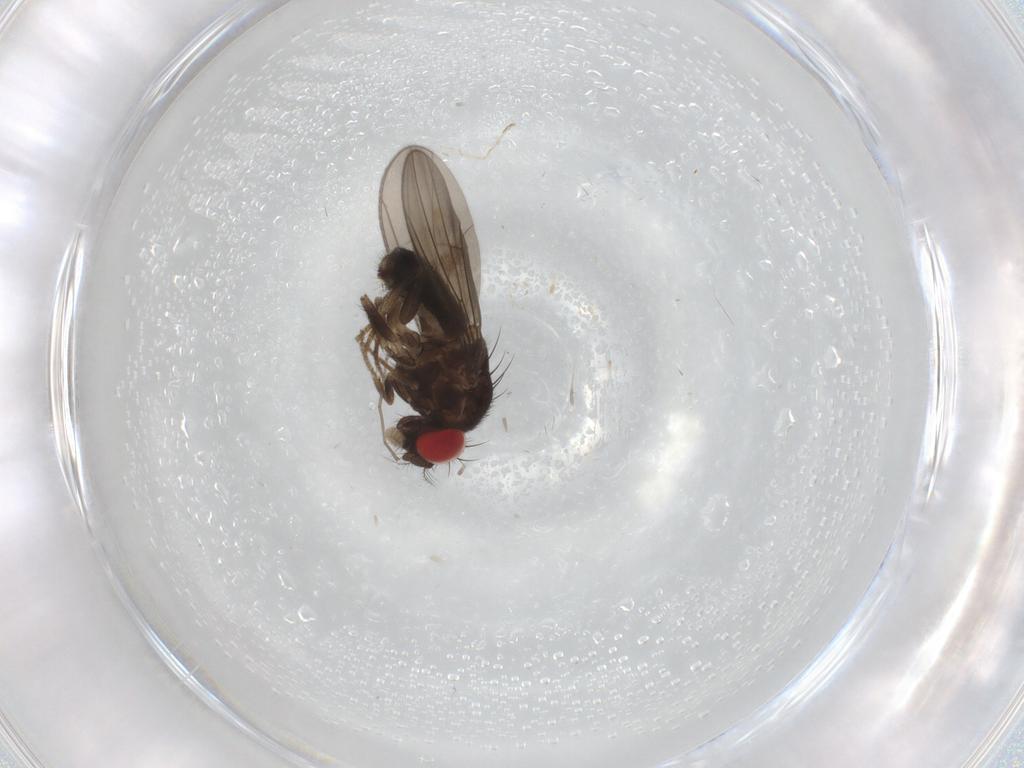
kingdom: Animalia
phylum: Arthropoda
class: Insecta
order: Diptera
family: Drosophilidae
